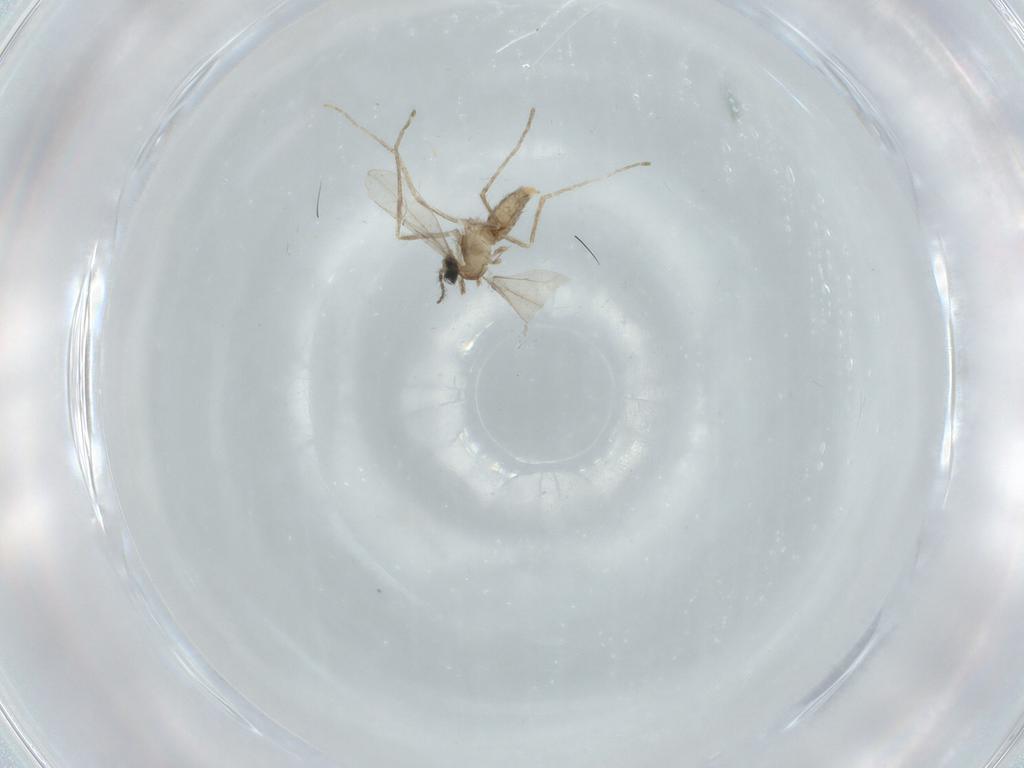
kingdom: Animalia
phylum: Arthropoda
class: Insecta
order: Diptera
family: Cecidomyiidae
